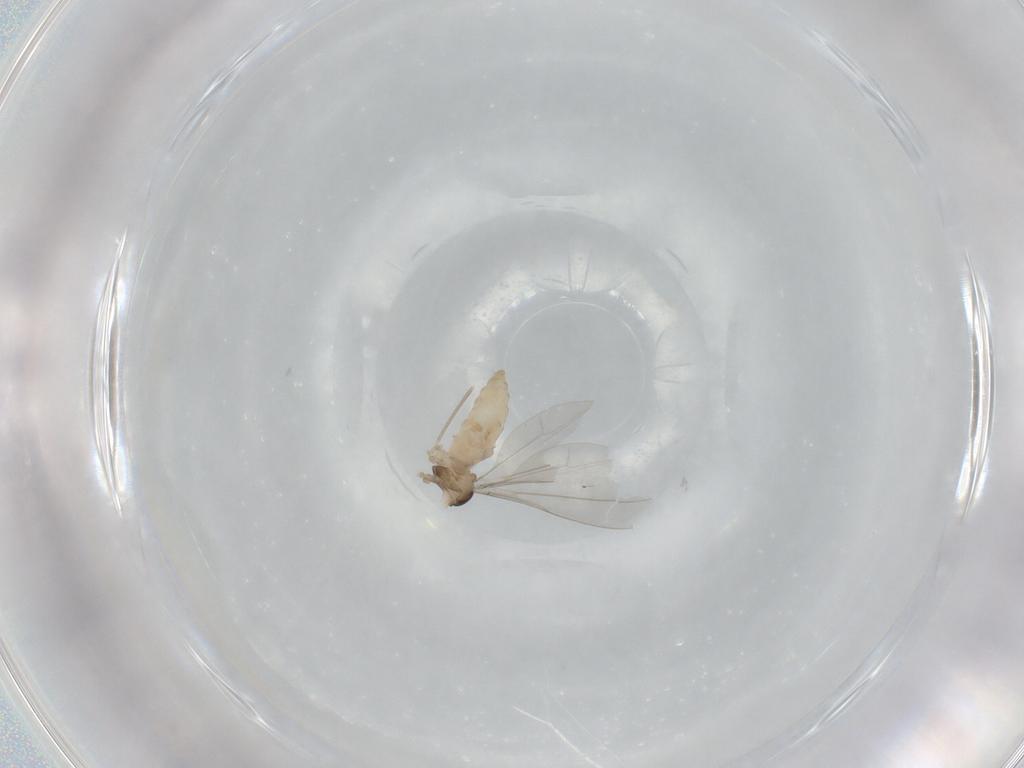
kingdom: Animalia
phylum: Arthropoda
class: Insecta
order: Diptera
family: Cecidomyiidae
